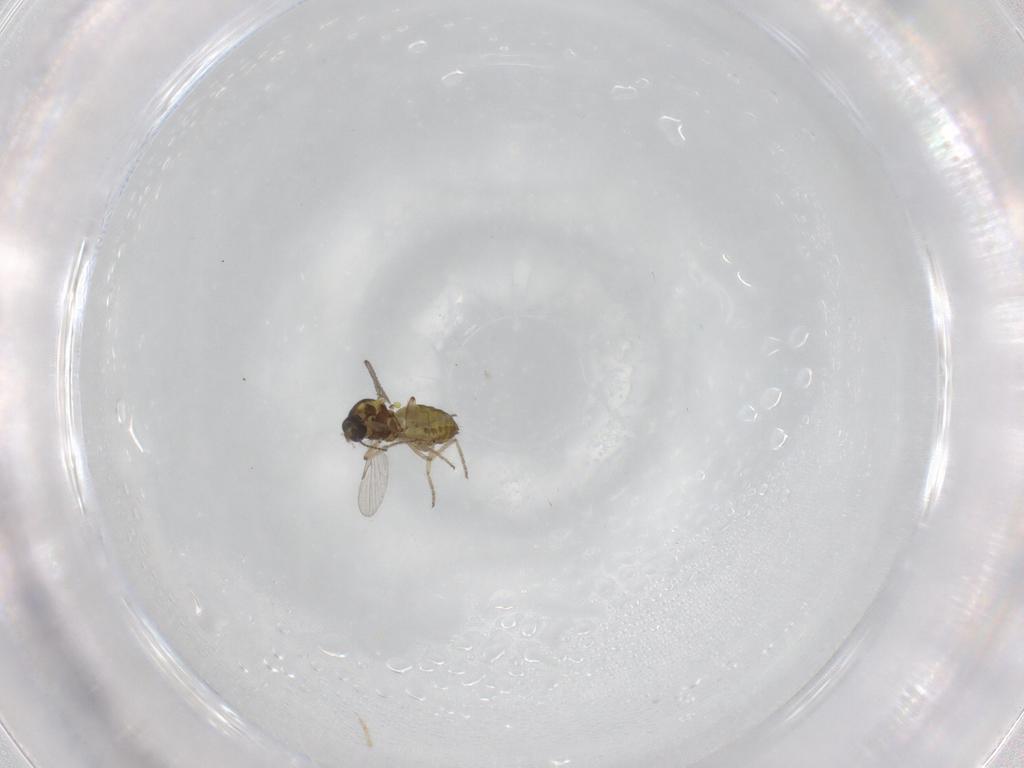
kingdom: Animalia
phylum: Arthropoda
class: Insecta
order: Diptera
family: Ceratopogonidae
